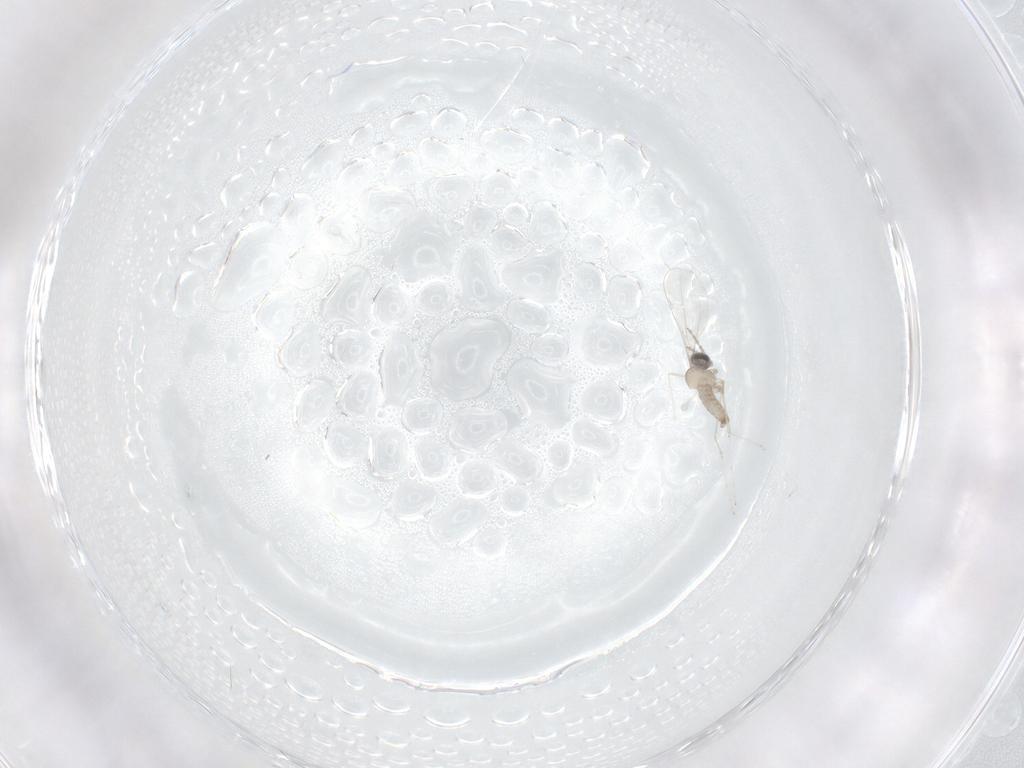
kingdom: Animalia
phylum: Arthropoda
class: Insecta
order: Diptera
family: Cecidomyiidae
